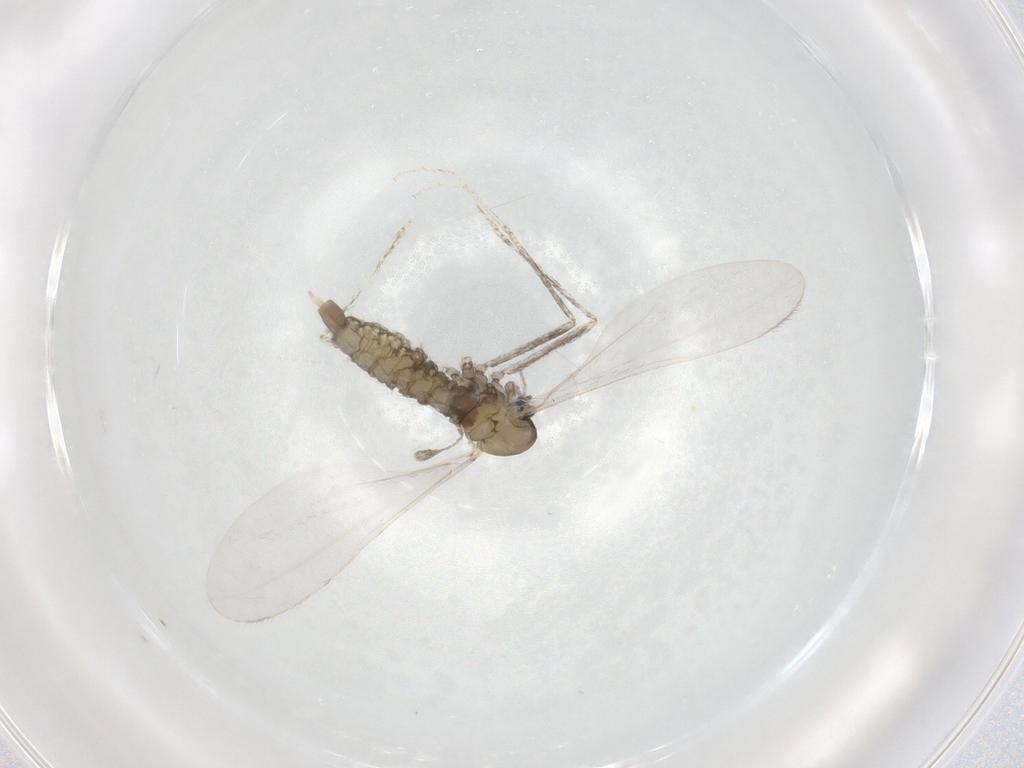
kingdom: Animalia
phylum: Arthropoda
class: Insecta
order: Diptera
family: Cecidomyiidae
